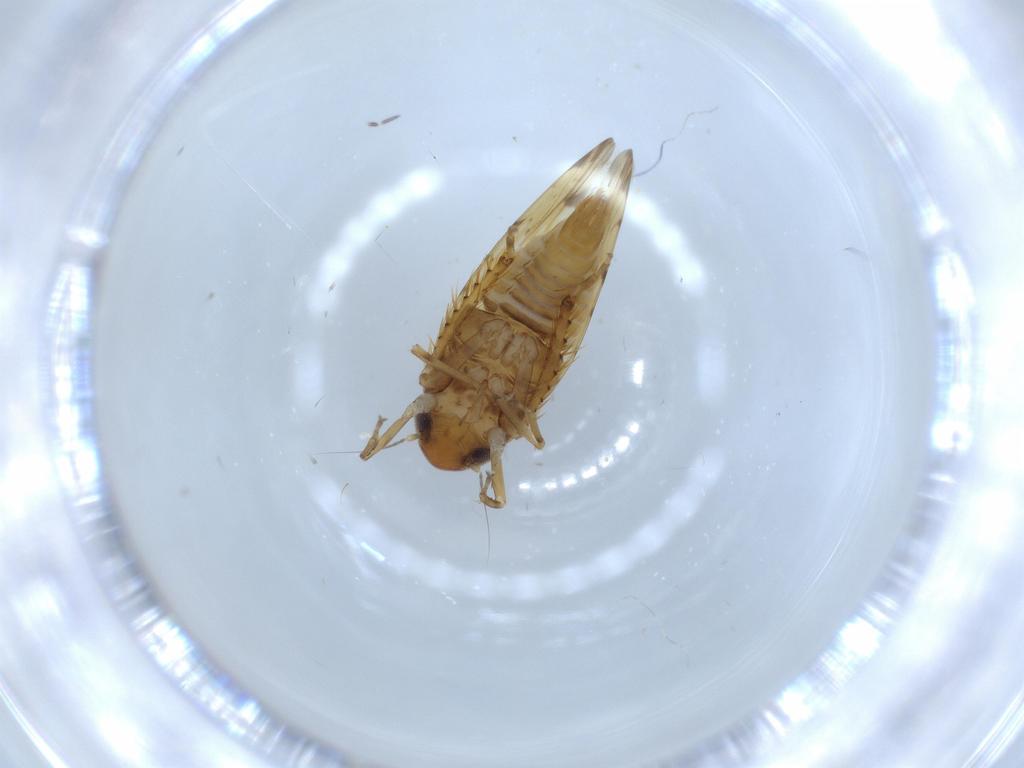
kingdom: Animalia
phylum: Arthropoda
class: Insecta
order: Hemiptera
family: Cicadellidae
